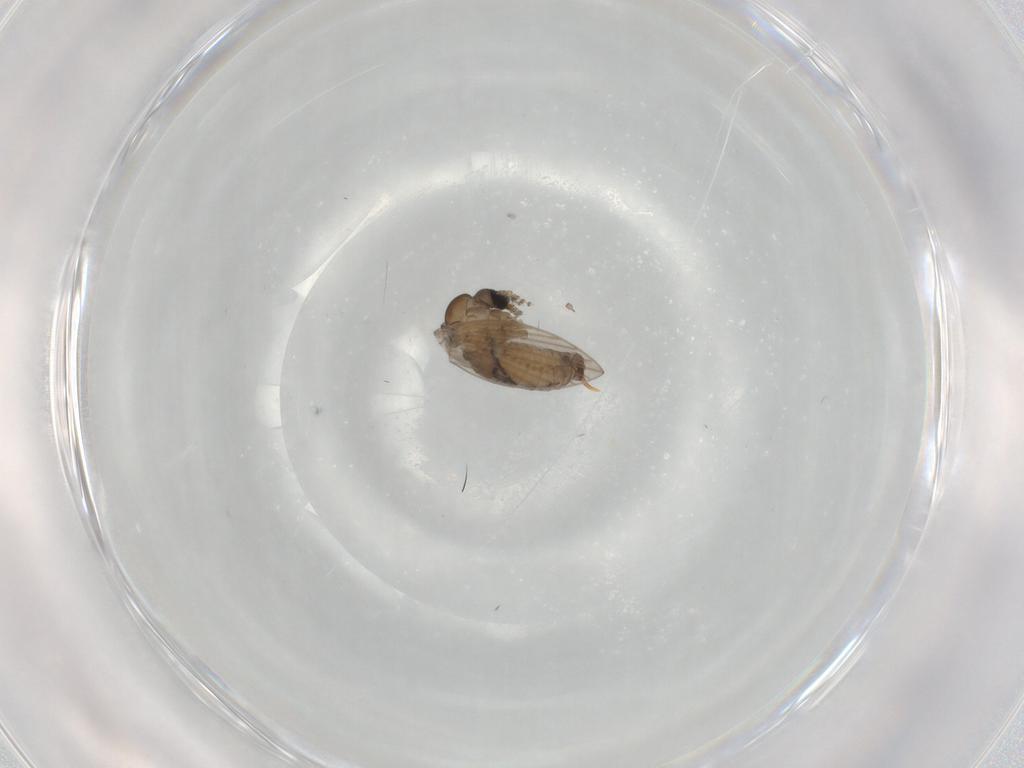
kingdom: Animalia
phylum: Arthropoda
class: Insecta
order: Diptera
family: Psychodidae
